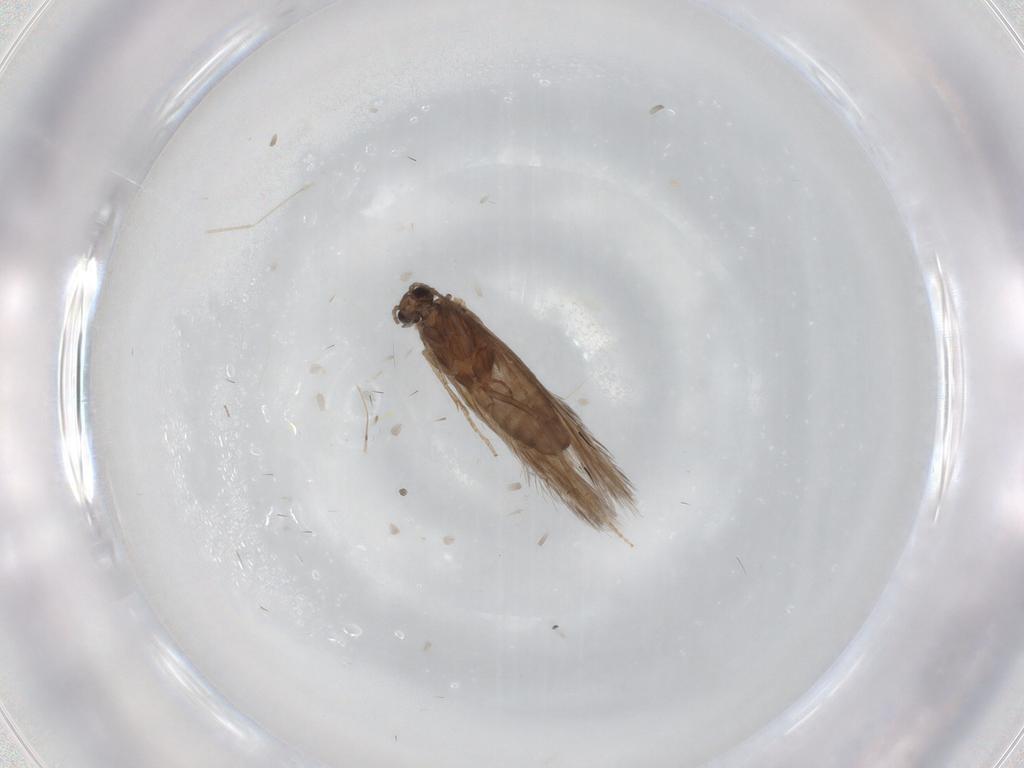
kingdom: Animalia
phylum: Arthropoda
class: Insecta
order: Trichoptera
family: Hydroptilidae
